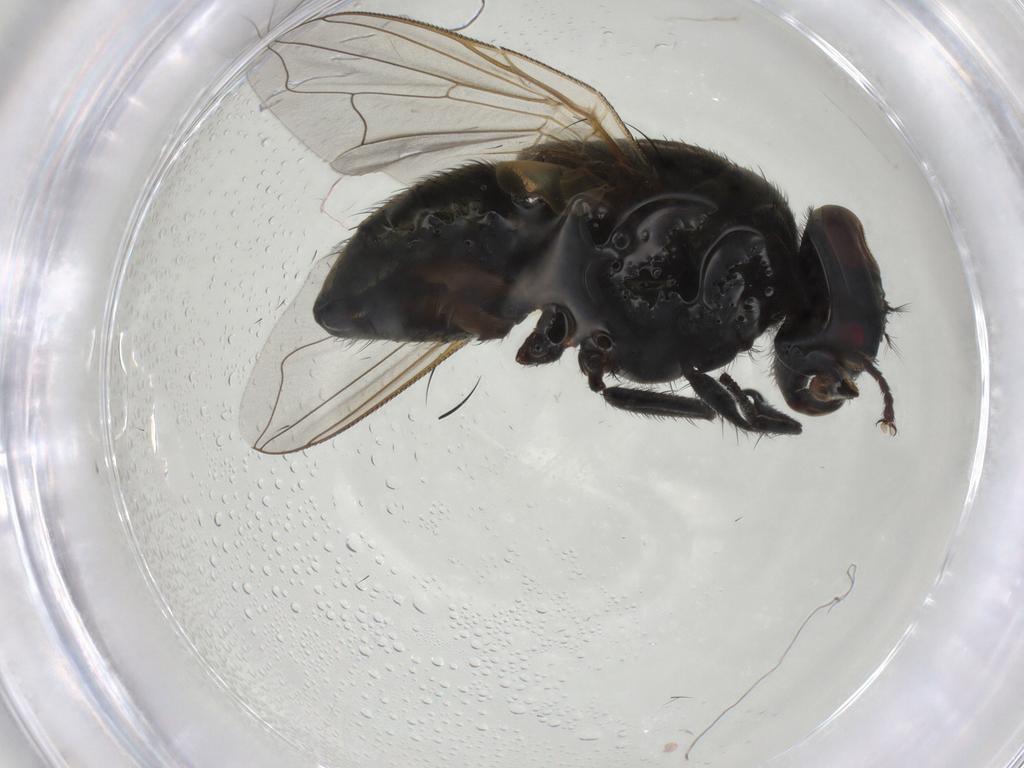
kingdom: Animalia
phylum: Arthropoda
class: Insecta
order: Diptera
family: Muscidae
